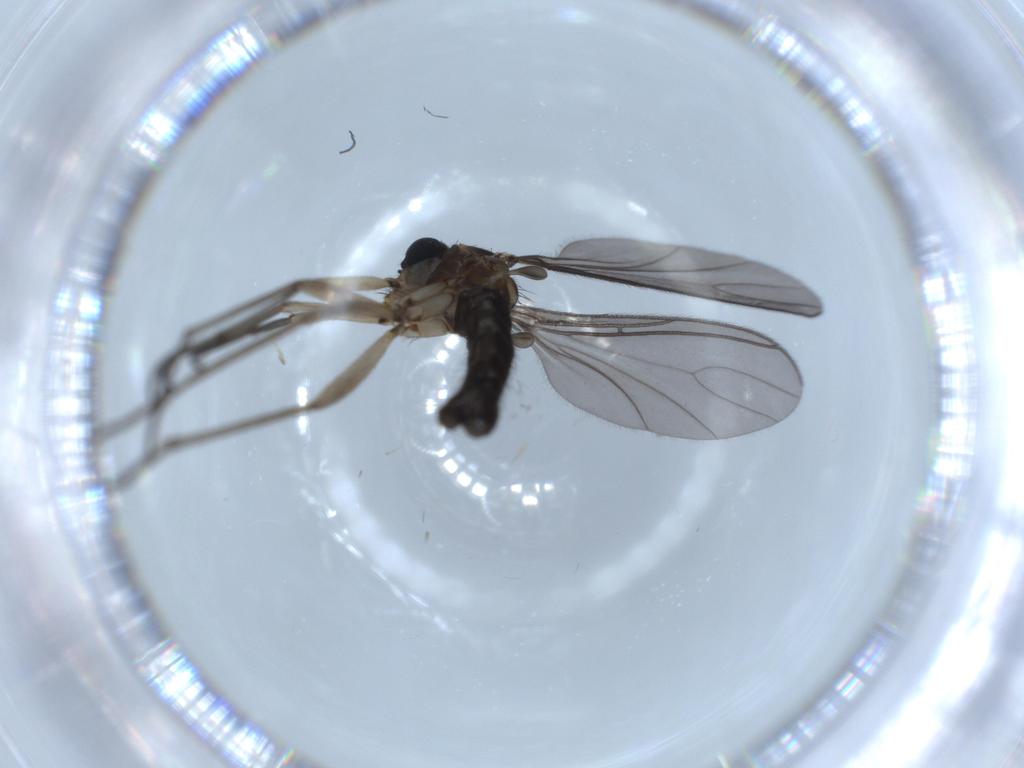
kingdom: Animalia
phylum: Arthropoda
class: Insecta
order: Diptera
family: Sciaridae
